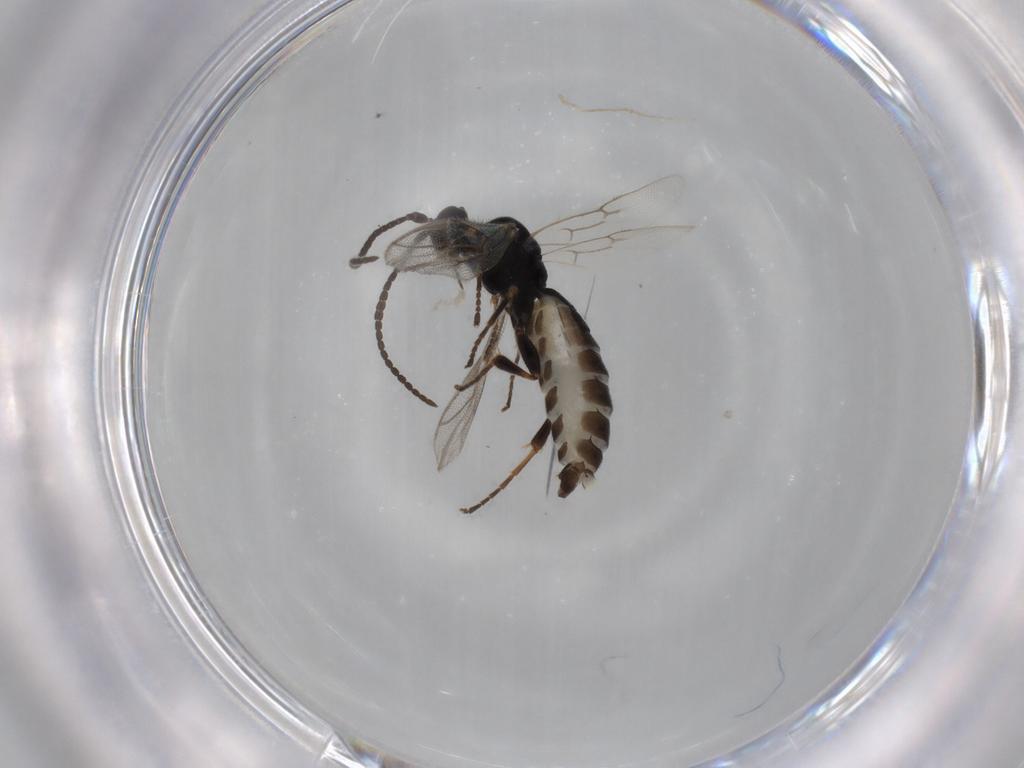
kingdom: Animalia
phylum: Arthropoda
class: Insecta
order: Hymenoptera
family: Ichneumonidae
